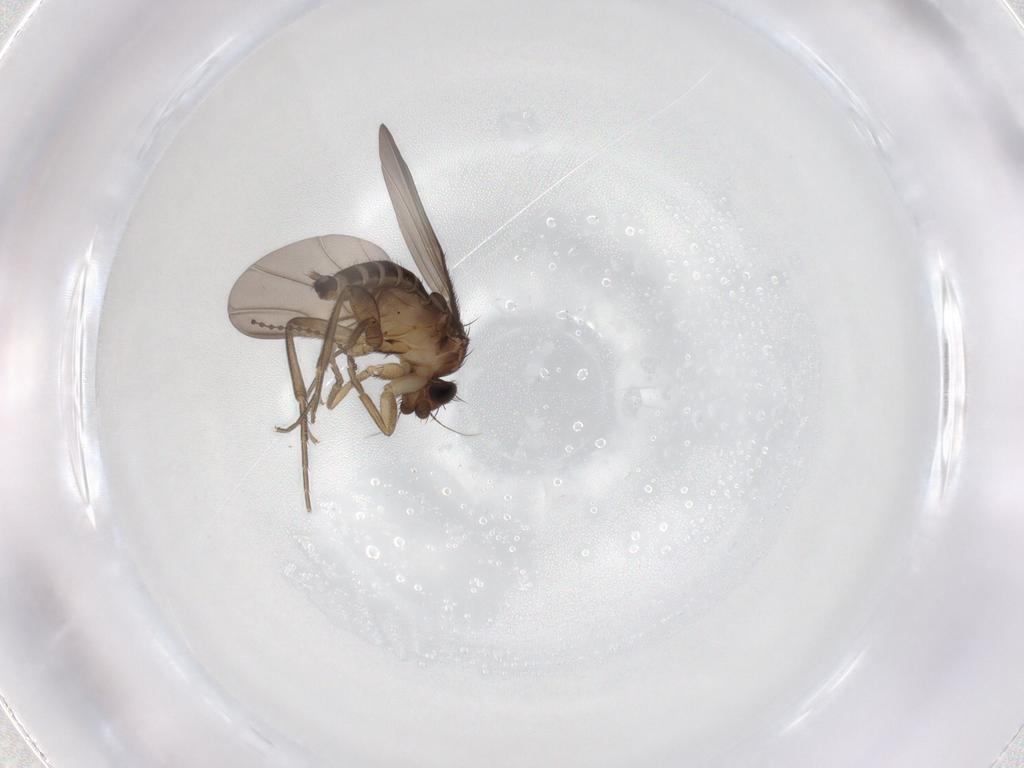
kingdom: Animalia
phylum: Arthropoda
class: Insecta
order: Diptera
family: Phoridae
